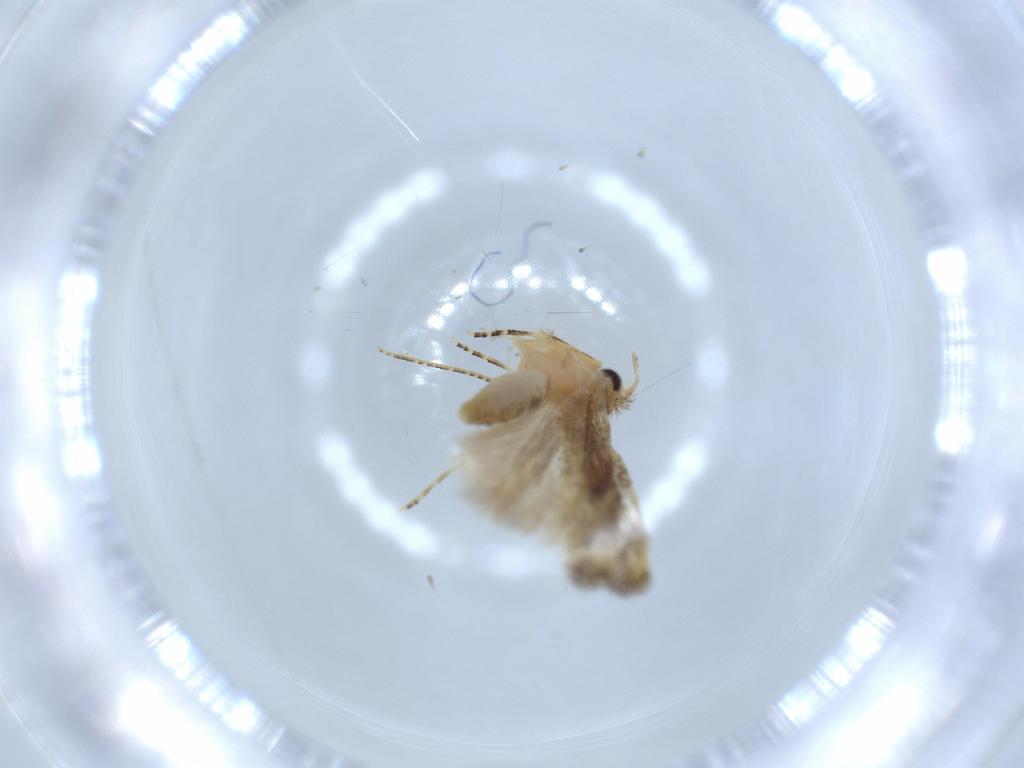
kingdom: Animalia
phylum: Arthropoda
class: Insecta
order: Lepidoptera
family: Bucculatricidae
